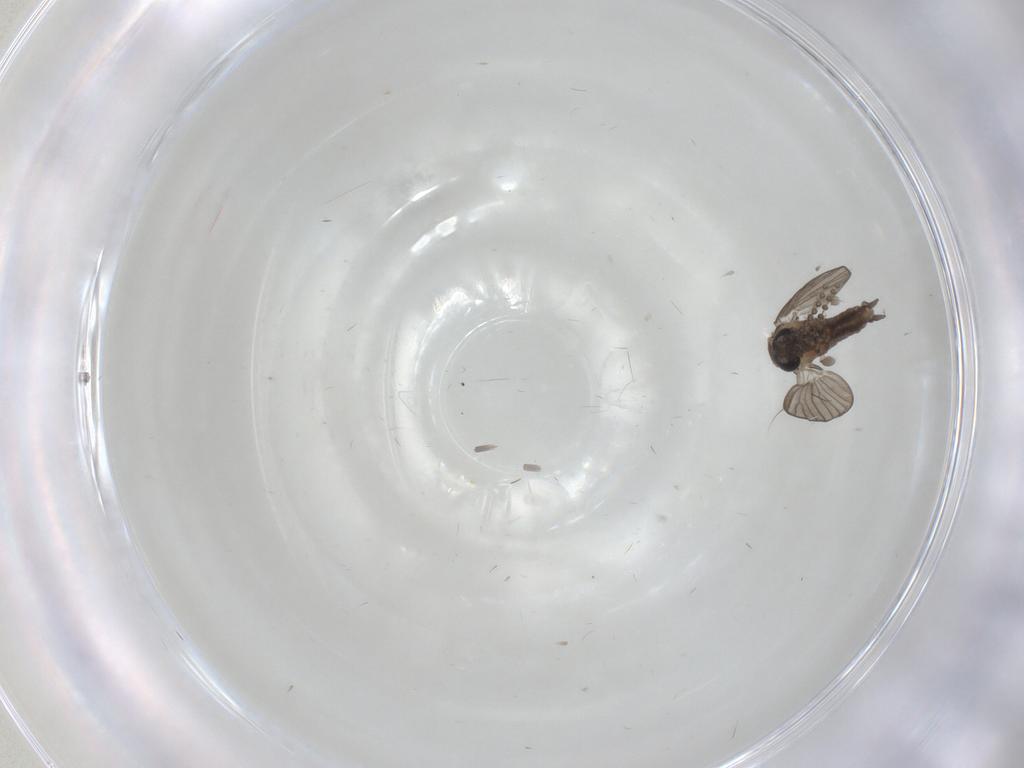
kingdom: Animalia
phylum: Arthropoda
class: Insecta
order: Diptera
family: Psychodidae
